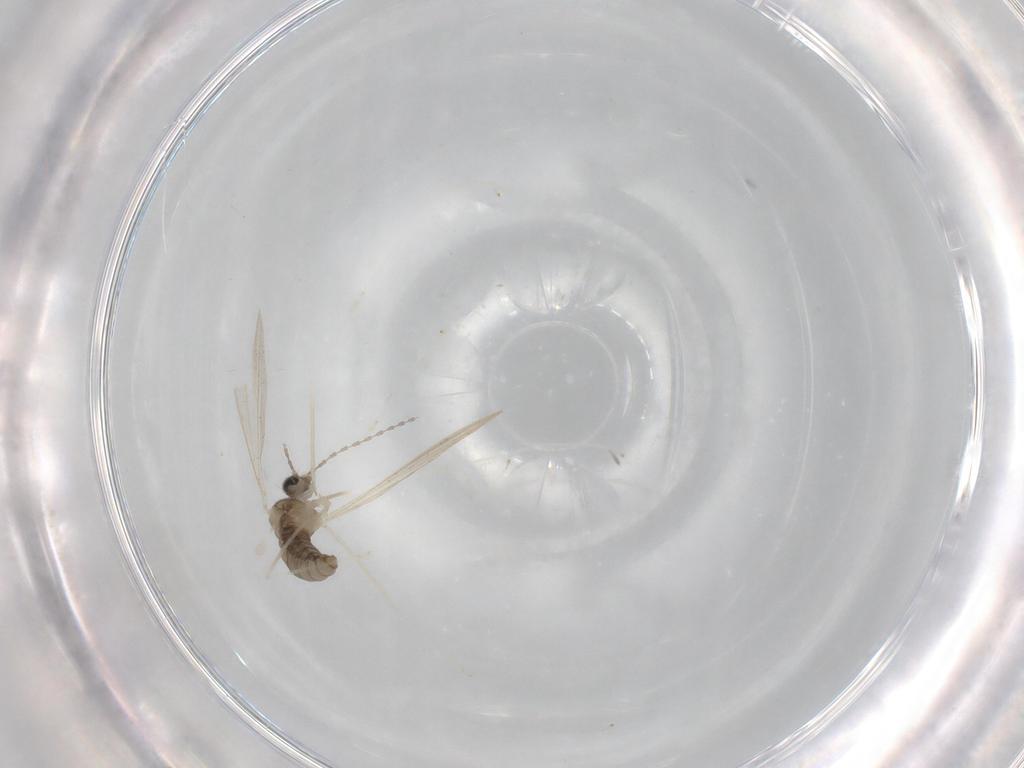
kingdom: Animalia
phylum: Arthropoda
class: Insecta
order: Diptera
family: Cecidomyiidae
